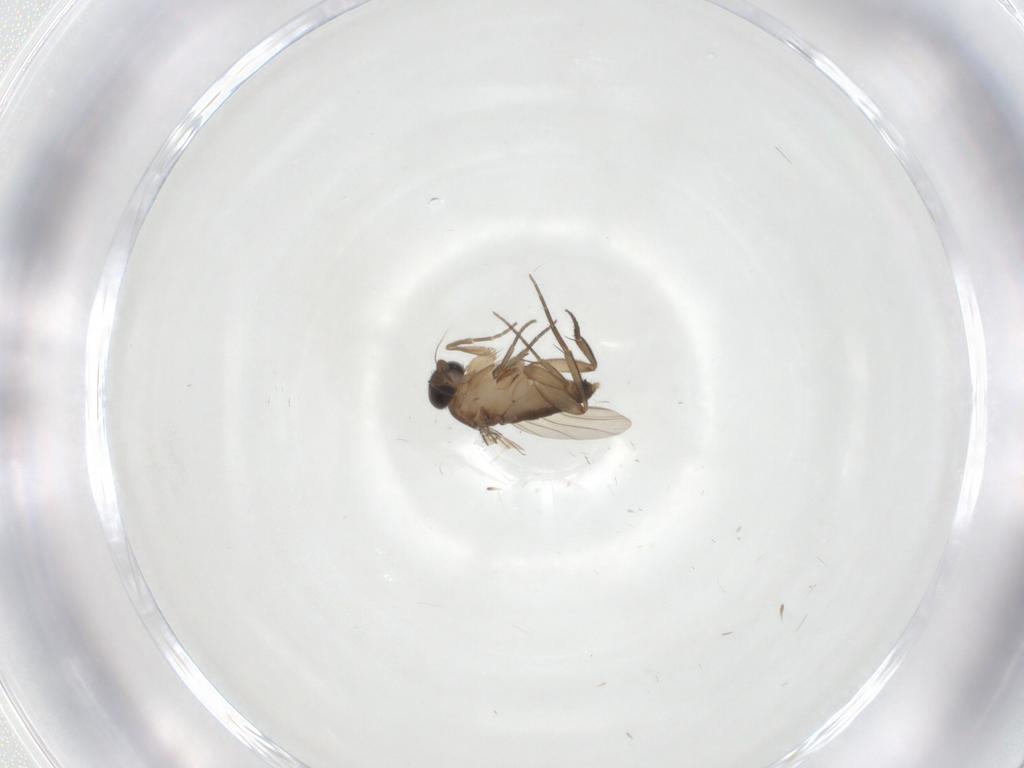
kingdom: Animalia
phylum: Arthropoda
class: Insecta
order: Diptera
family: Phoridae
